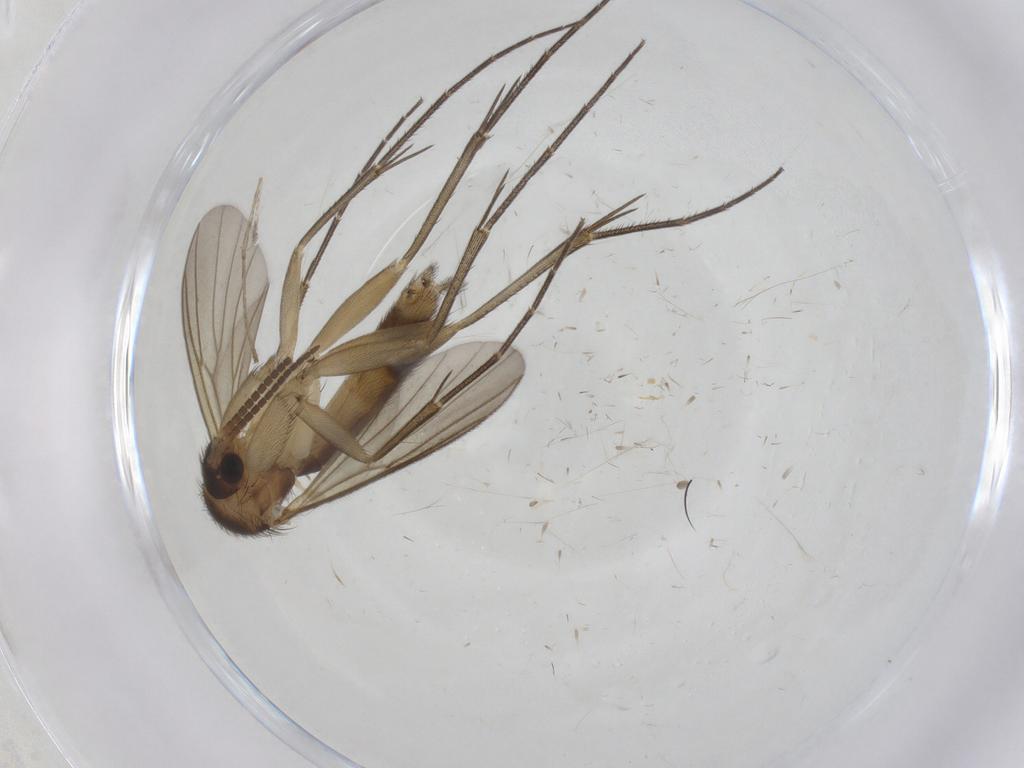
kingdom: Animalia
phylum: Arthropoda
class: Insecta
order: Diptera
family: Mycetophilidae
